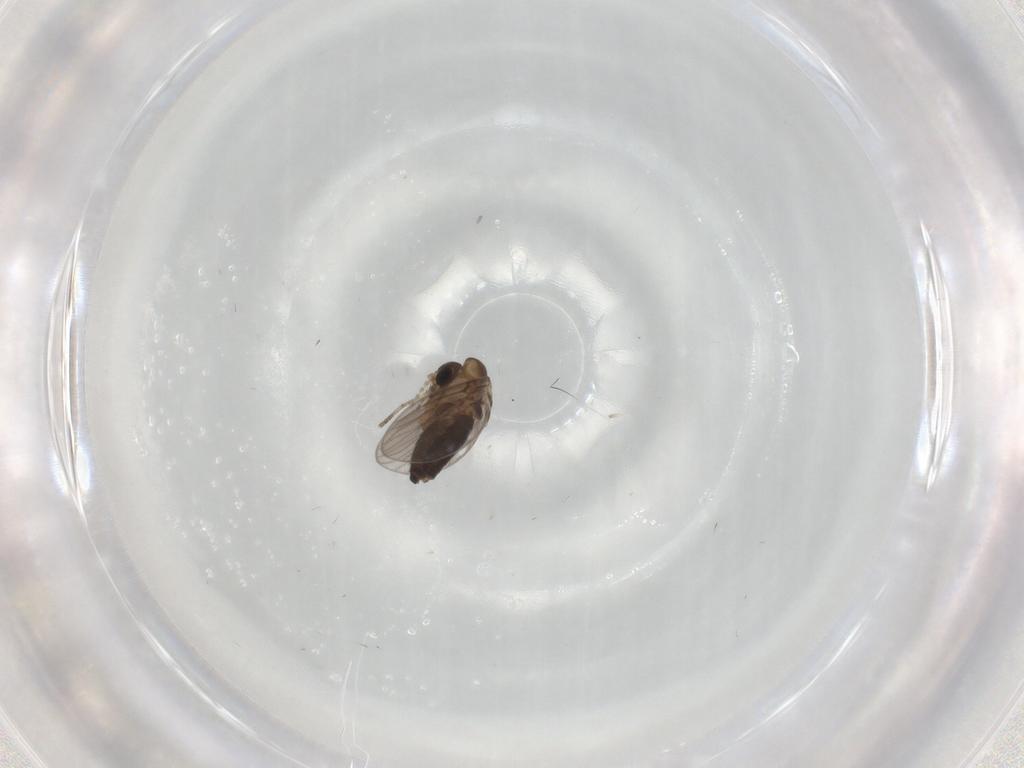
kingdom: Animalia
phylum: Arthropoda
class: Insecta
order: Diptera
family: Psychodidae
